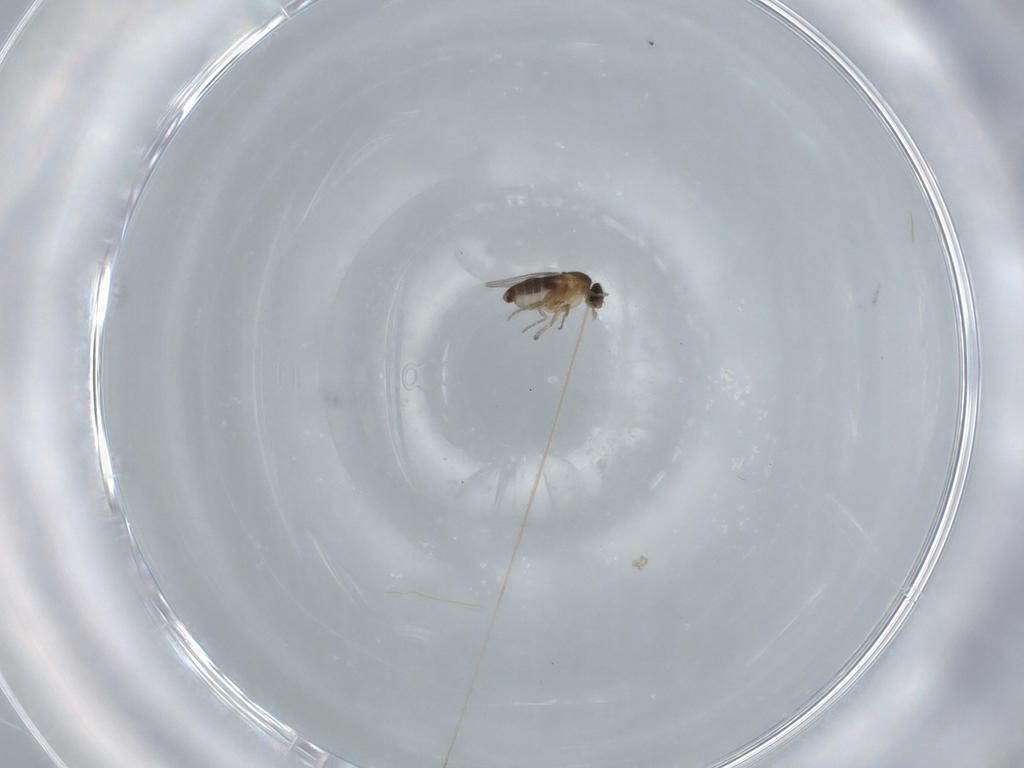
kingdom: Animalia
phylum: Arthropoda
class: Insecta
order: Diptera
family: Phoridae
